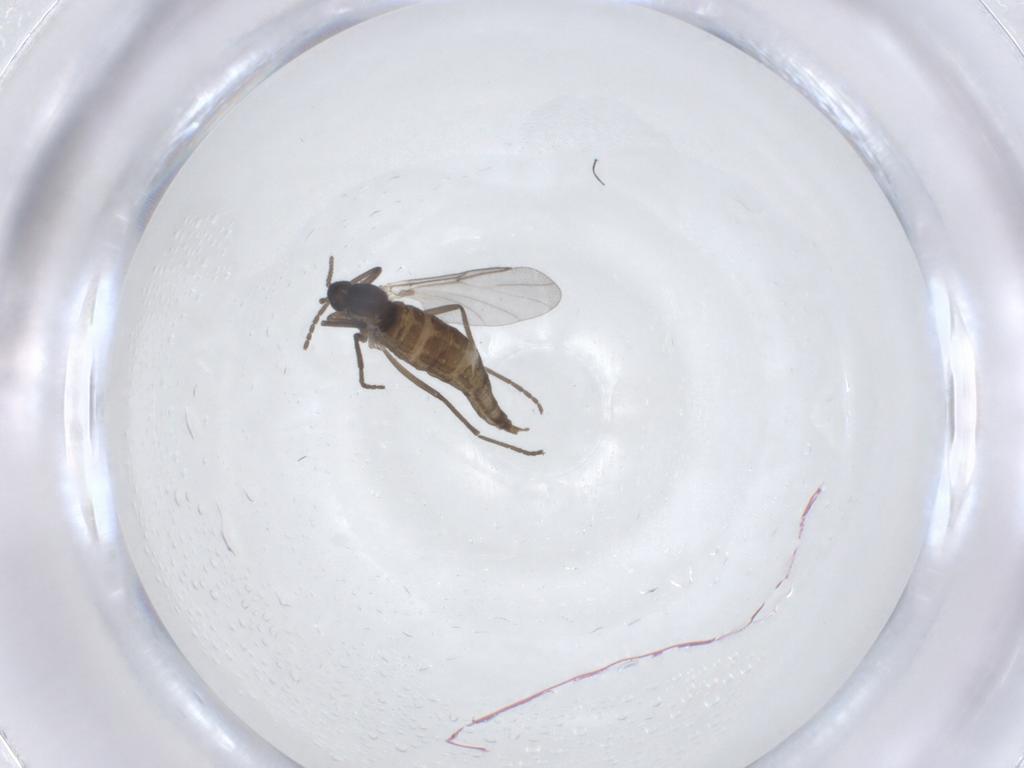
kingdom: Animalia
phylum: Arthropoda
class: Insecta
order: Diptera
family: Cecidomyiidae
